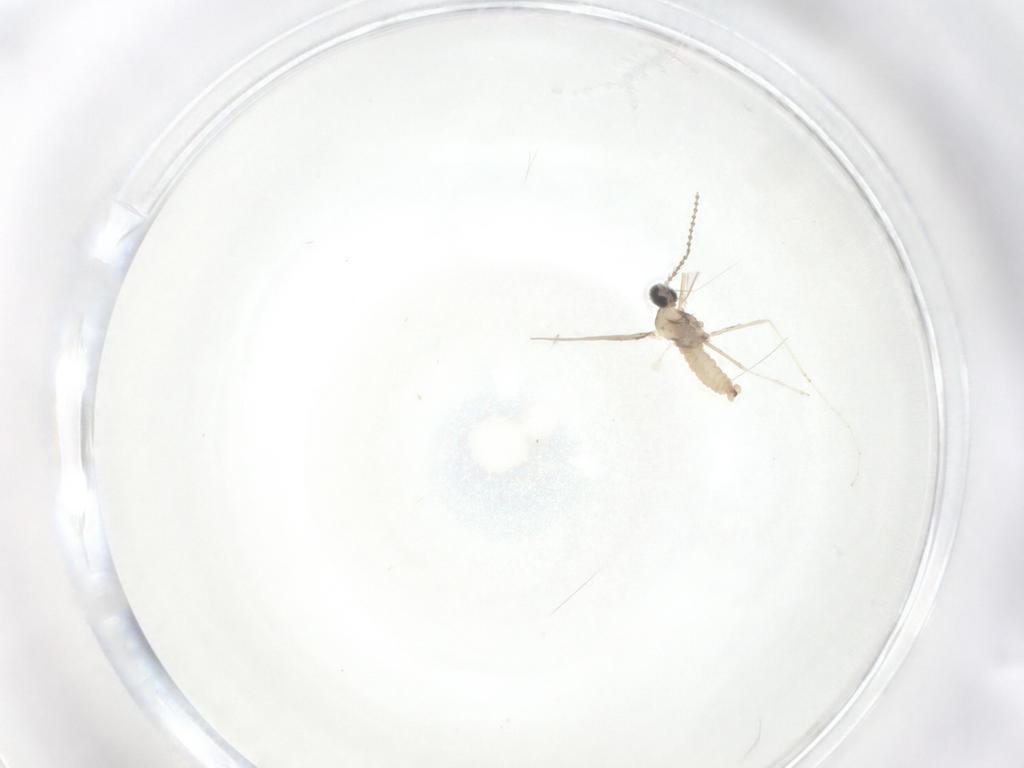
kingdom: Animalia
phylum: Arthropoda
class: Insecta
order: Diptera
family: Cecidomyiidae
